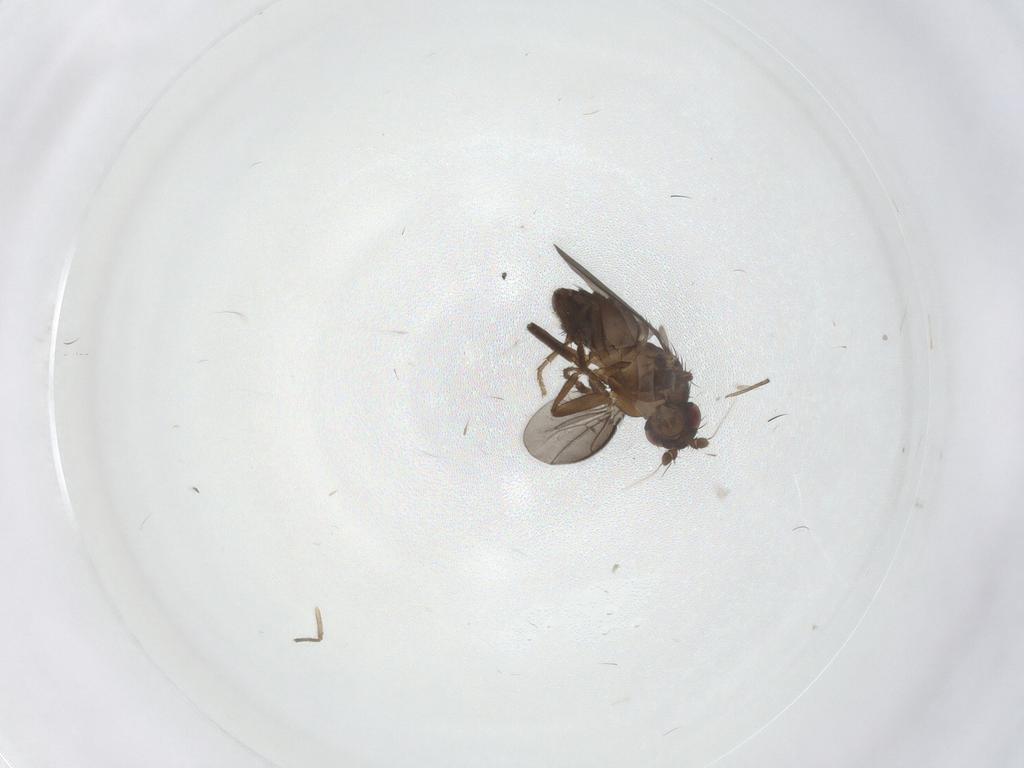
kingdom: Animalia
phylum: Arthropoda
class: Insecta
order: Diptera
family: Sphaeroceridae
